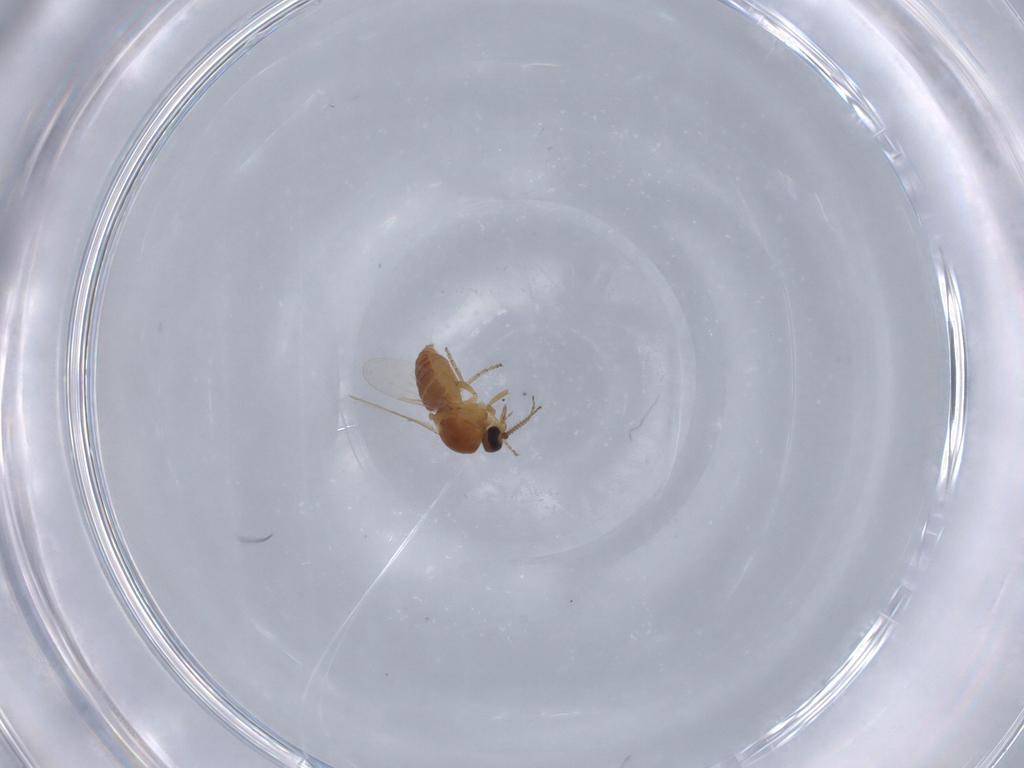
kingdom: Animalia
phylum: Arthropoda
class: Insecta
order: Diptera
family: Ceratopogonidae
